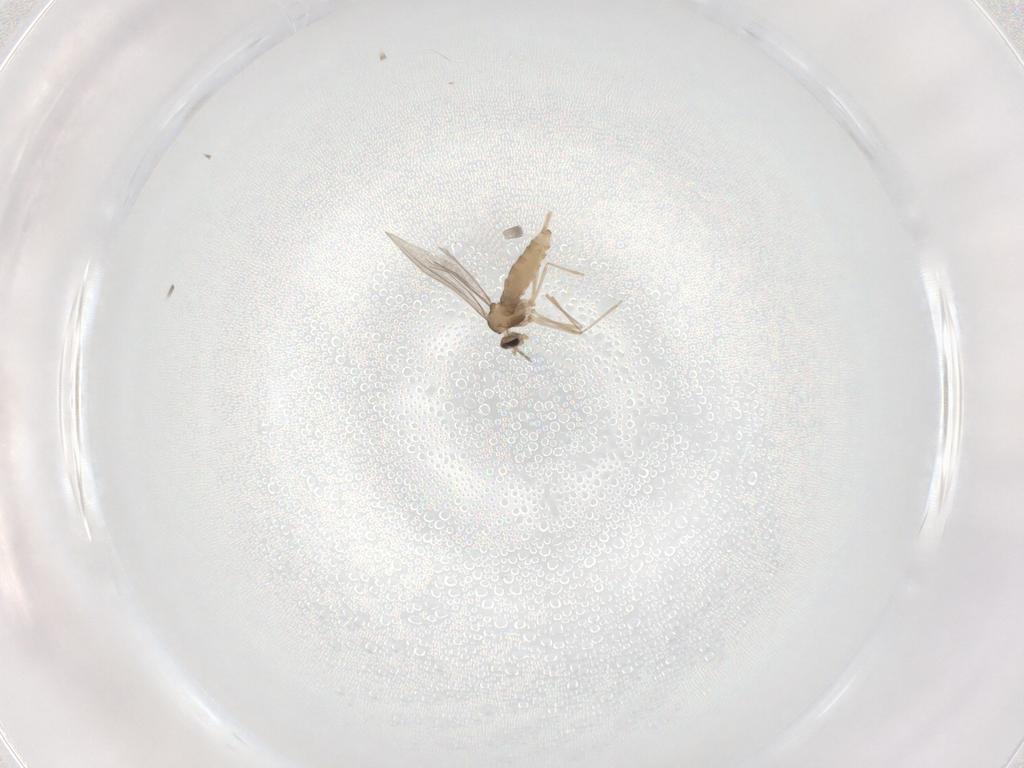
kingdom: Animalia
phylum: Arthropoda
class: Insecta
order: Diptera
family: Cecidomyiidae
